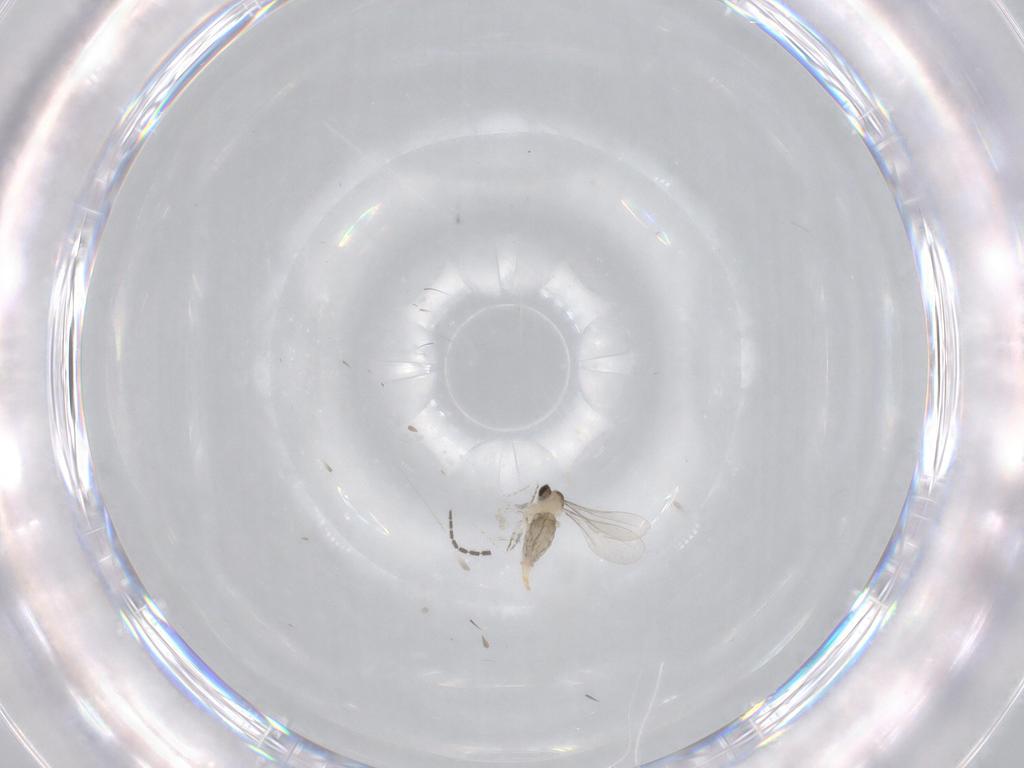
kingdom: Animalia
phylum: Arthropoda
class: Insecta
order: Diptera
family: Sciaridae
